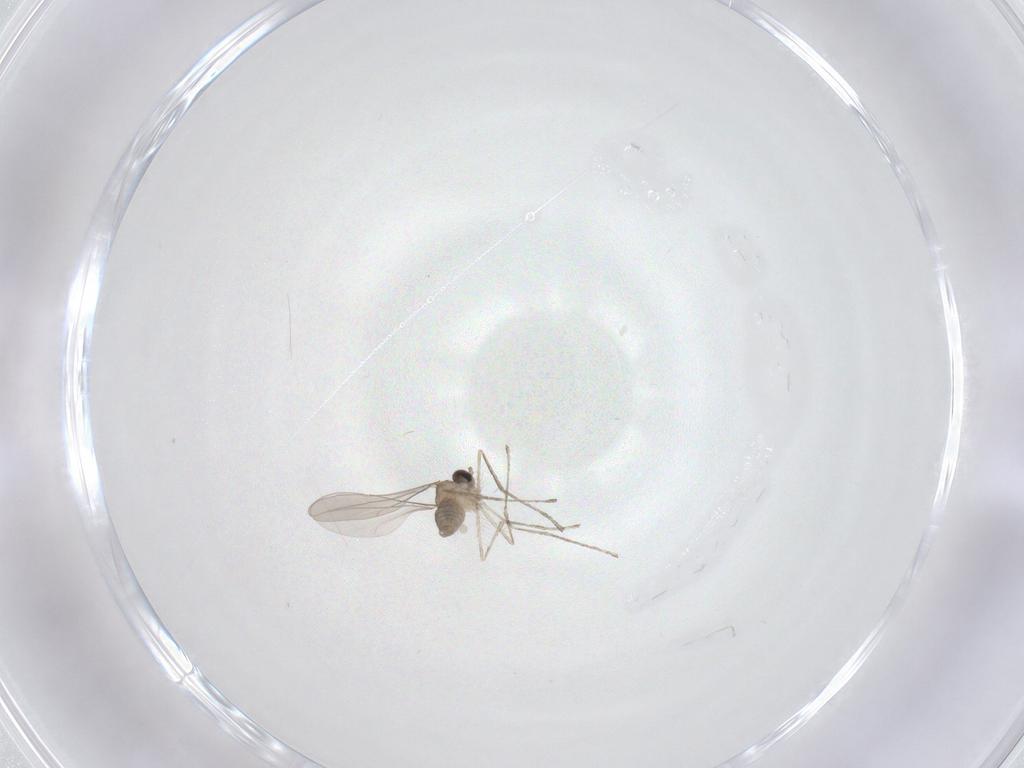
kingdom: Animalia
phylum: Arthropoda
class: Insecta
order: Diptera
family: Cecidomyiidae
